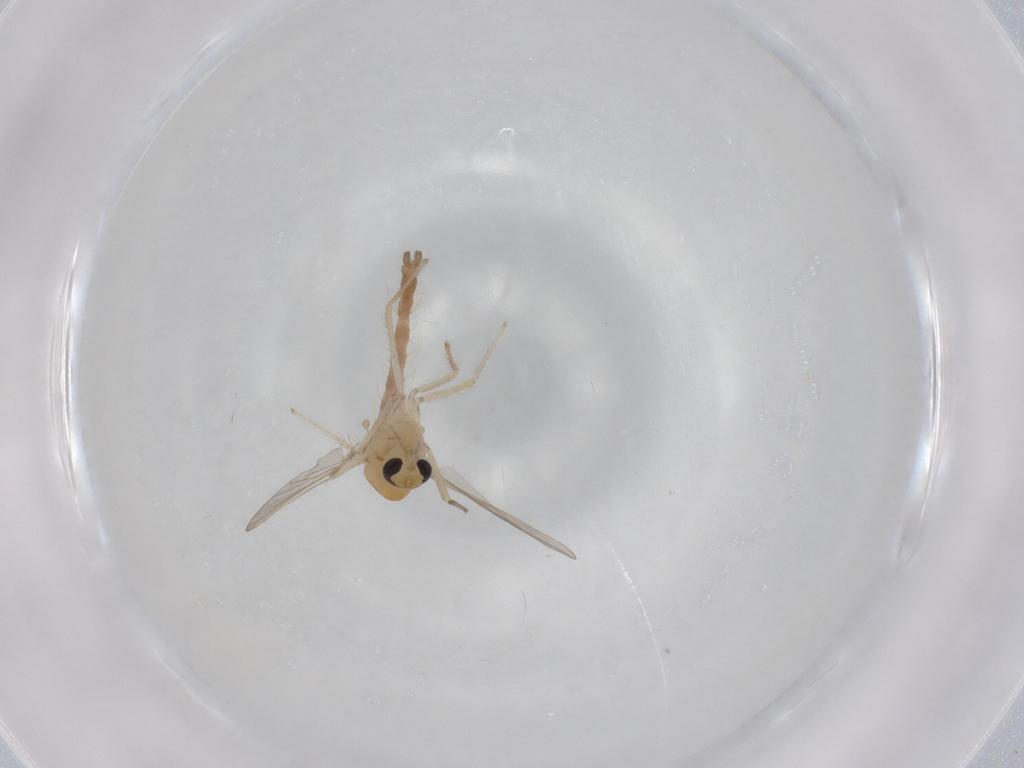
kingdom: Animalia
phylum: Arthropoda
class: Insecta
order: Diptera
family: Chironomidae
